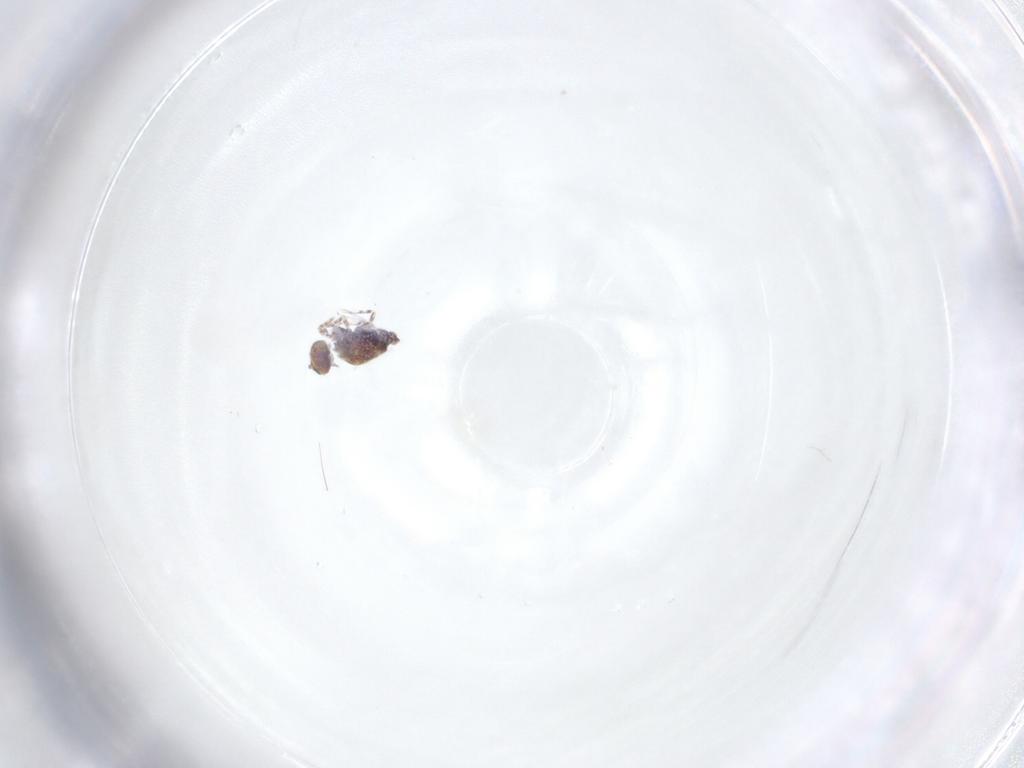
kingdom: Animalia
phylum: Arthropoda
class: Collembola
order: Symphypleona
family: Bourletiellidae
